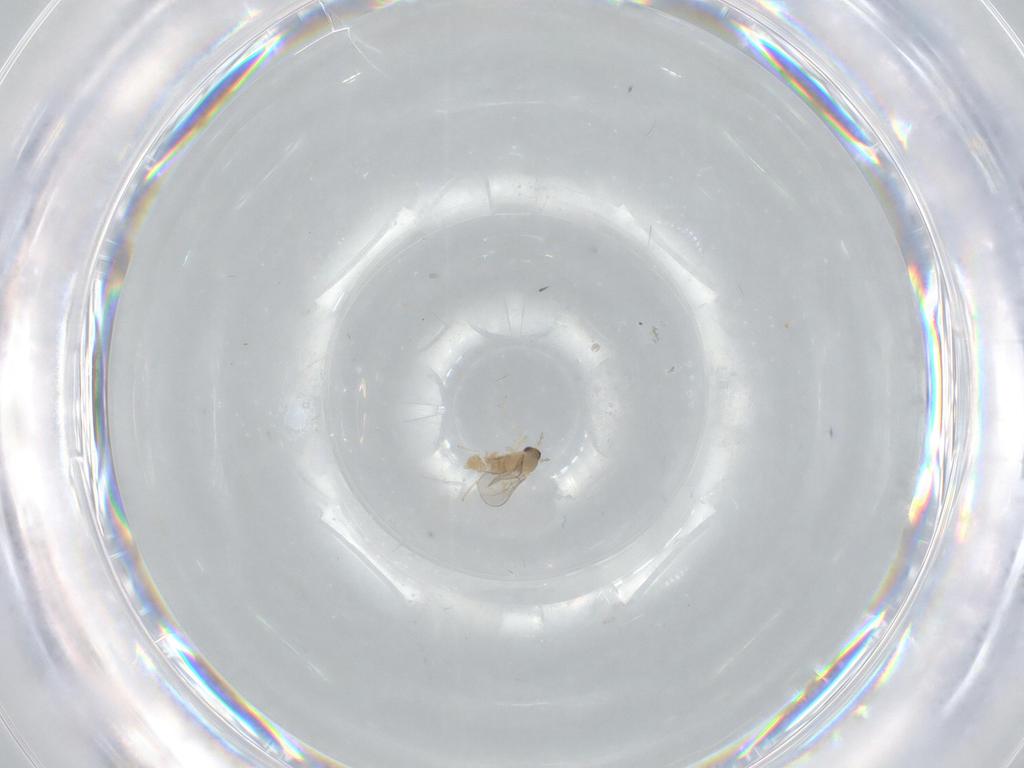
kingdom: Animalia
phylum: Arthropoda
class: Insecta
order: Diptera
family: Cecidomyiidae
